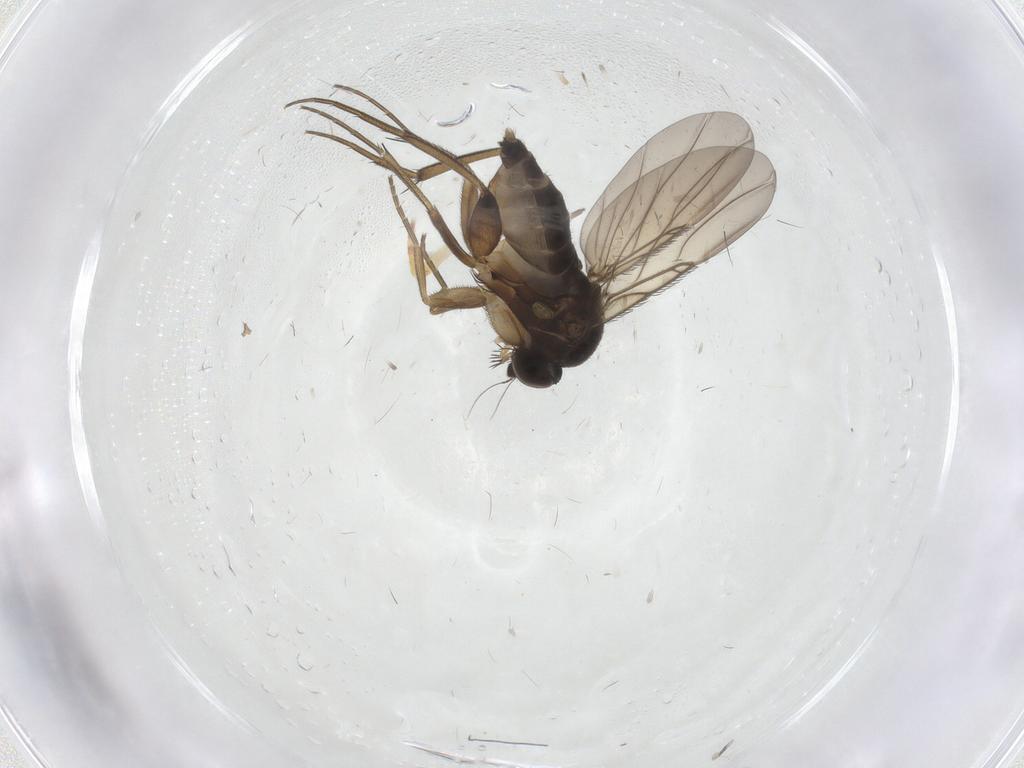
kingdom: Animalia
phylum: Arthropoda
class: Insecta
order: Diptera
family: Phoridae
